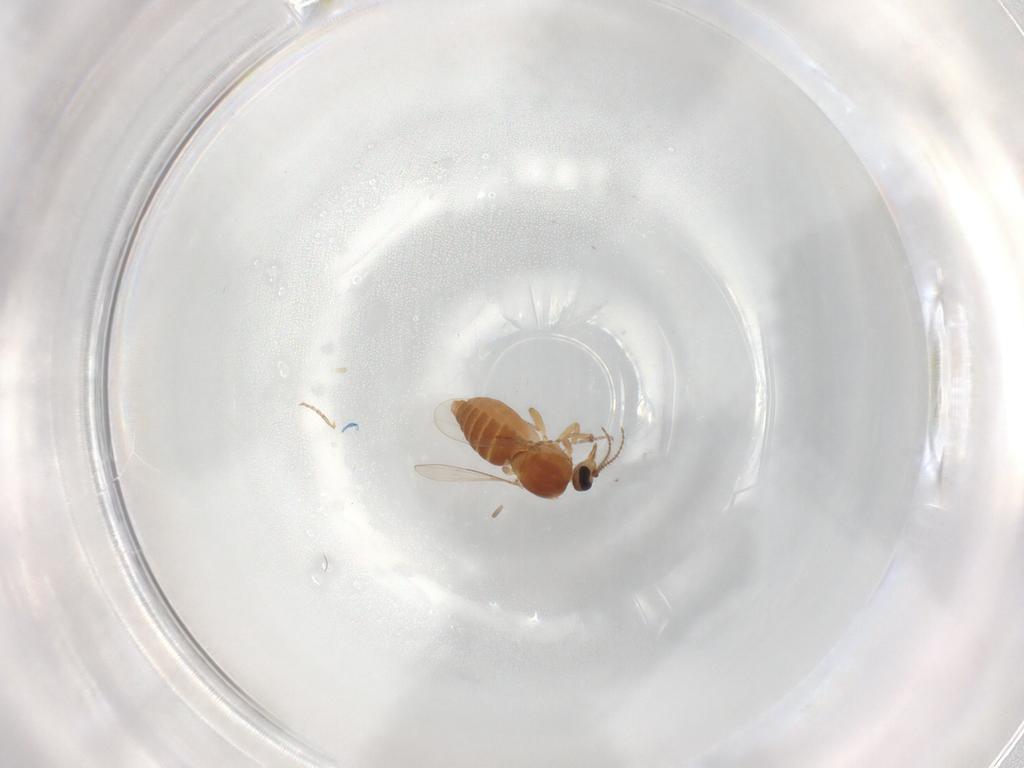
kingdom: Animalia
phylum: Arthropoda
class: Insecta
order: Diptera
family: Ceratopogonidae
